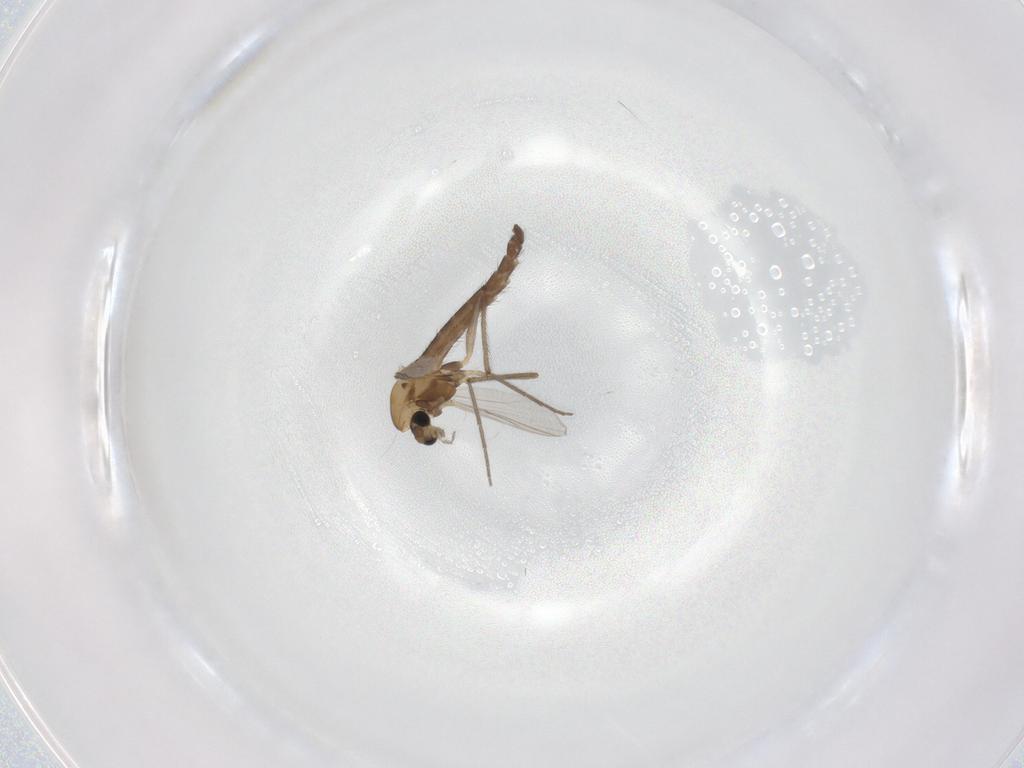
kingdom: Animalia
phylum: Arthropoda
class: Insecta
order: Diptera
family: Chironomidae
